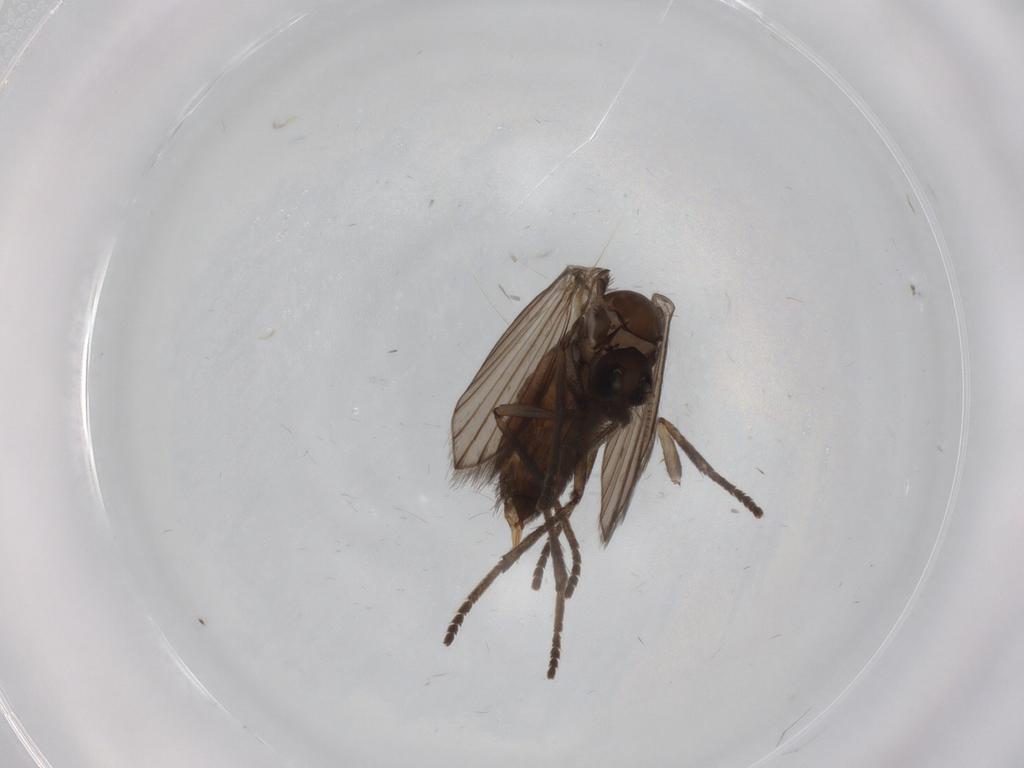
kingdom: Animalia
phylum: Arthropoda
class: Insecta
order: Diptera
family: Psychodidae
